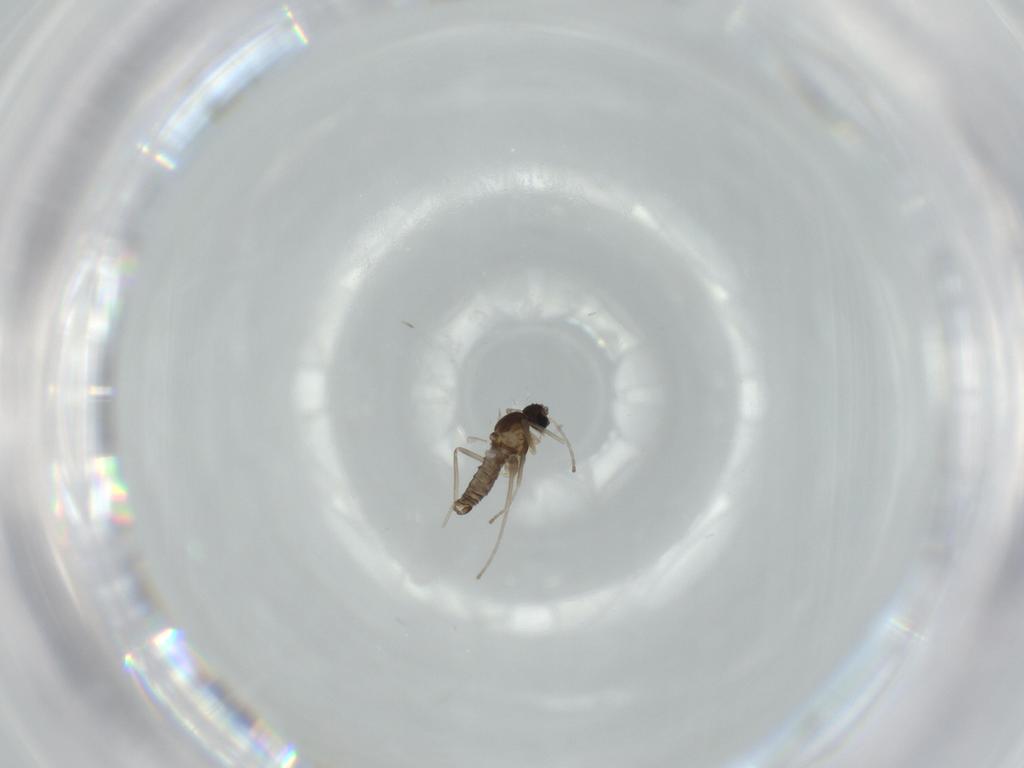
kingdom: Animalia
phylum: Arthropoda
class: Insecta
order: Diptera
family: Cecidomyiidae
